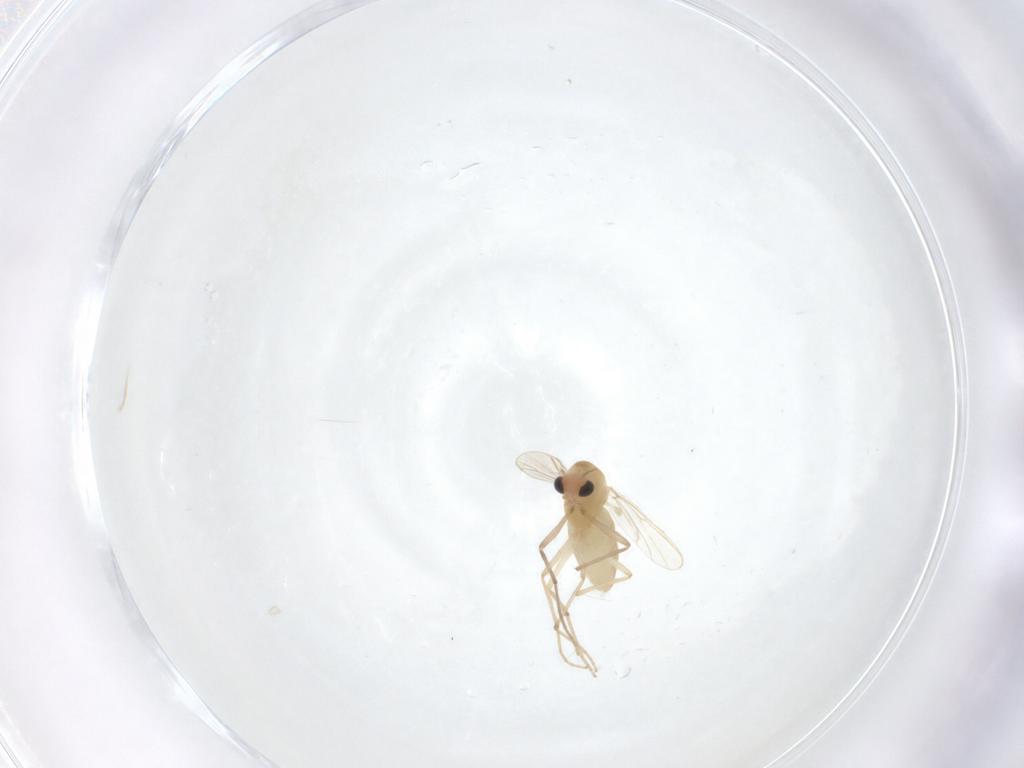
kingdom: Animalia
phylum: Arthropoda
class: Insecta
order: Diptera
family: Chironomidae
